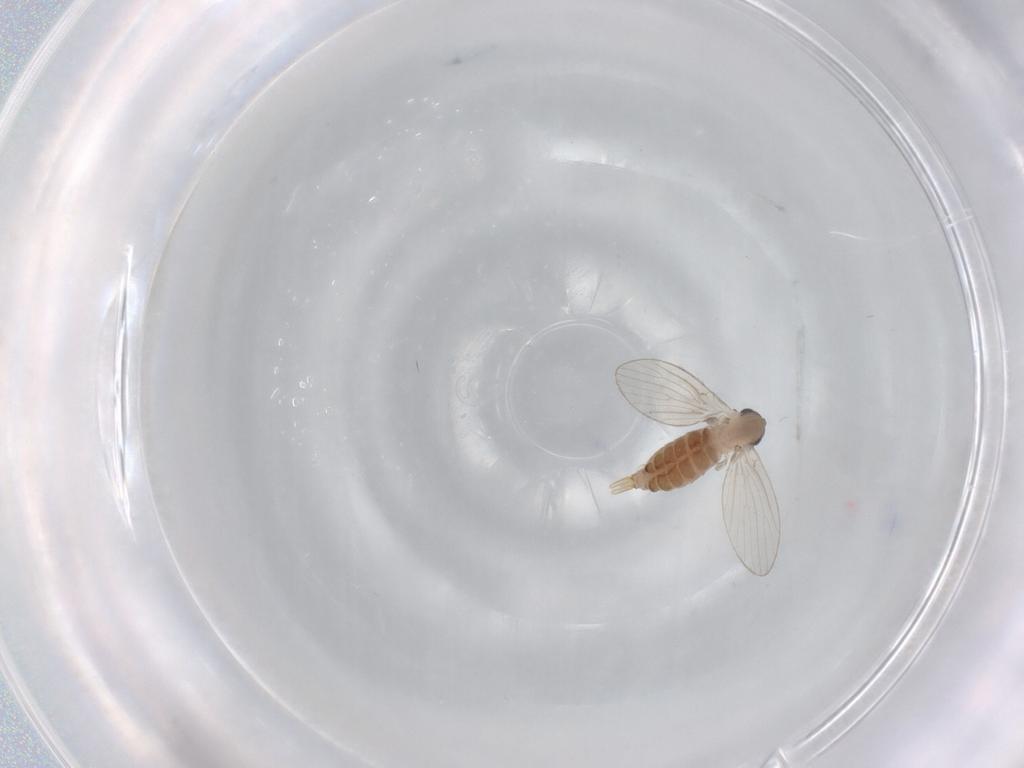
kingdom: Animalia
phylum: Arthropoda
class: Insecta
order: Diptera
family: Psychodidae
